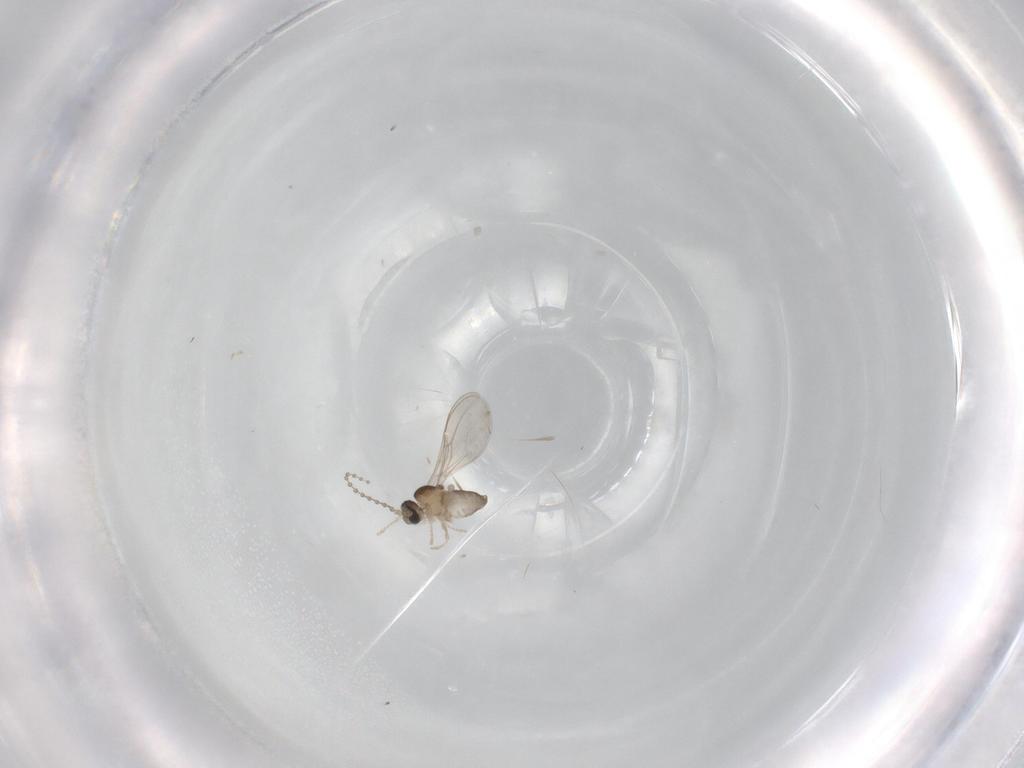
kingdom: Animalia
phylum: Arthropoda
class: Insecta
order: Diptera
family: Cecidomyiidae
